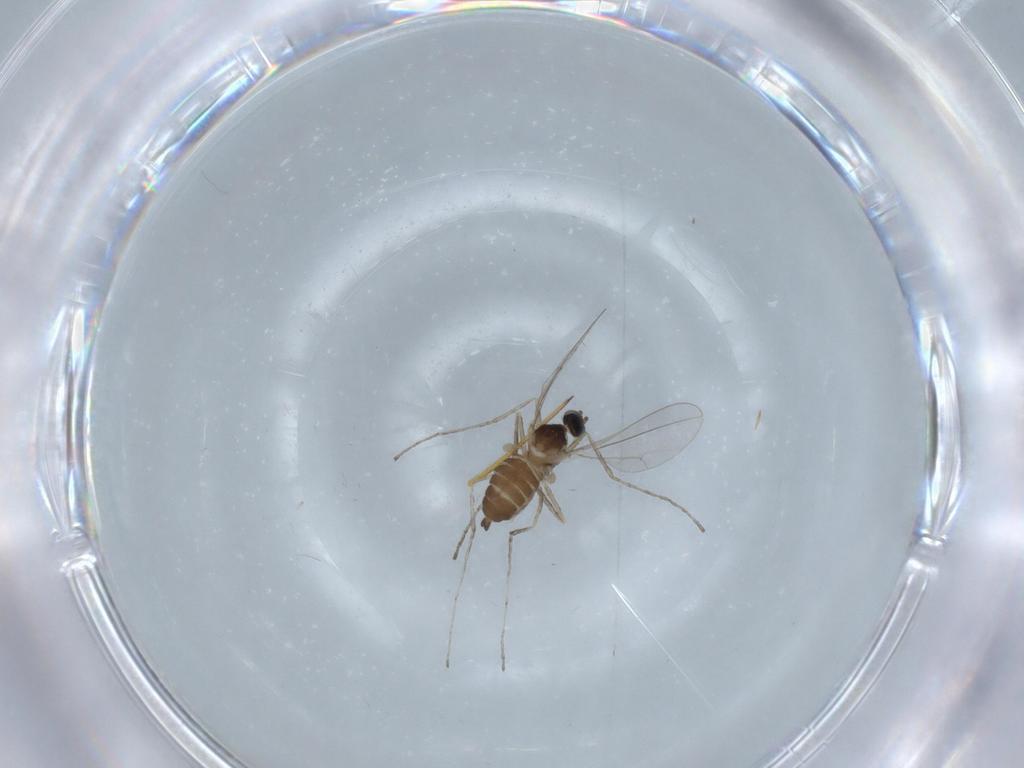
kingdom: Animalia
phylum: Arthropoda
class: Insecta
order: Diptera
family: Cecidomyiidae
